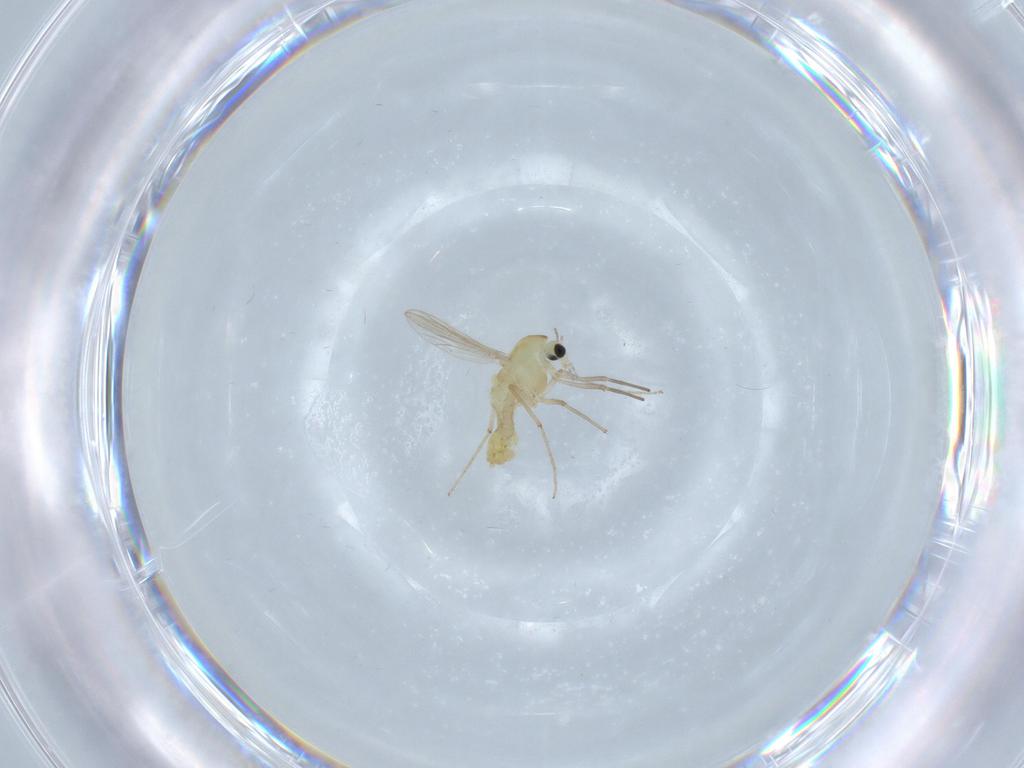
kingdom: Animalia
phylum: Arthropoda
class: Insecta
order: Diptera
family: Chironomidae
